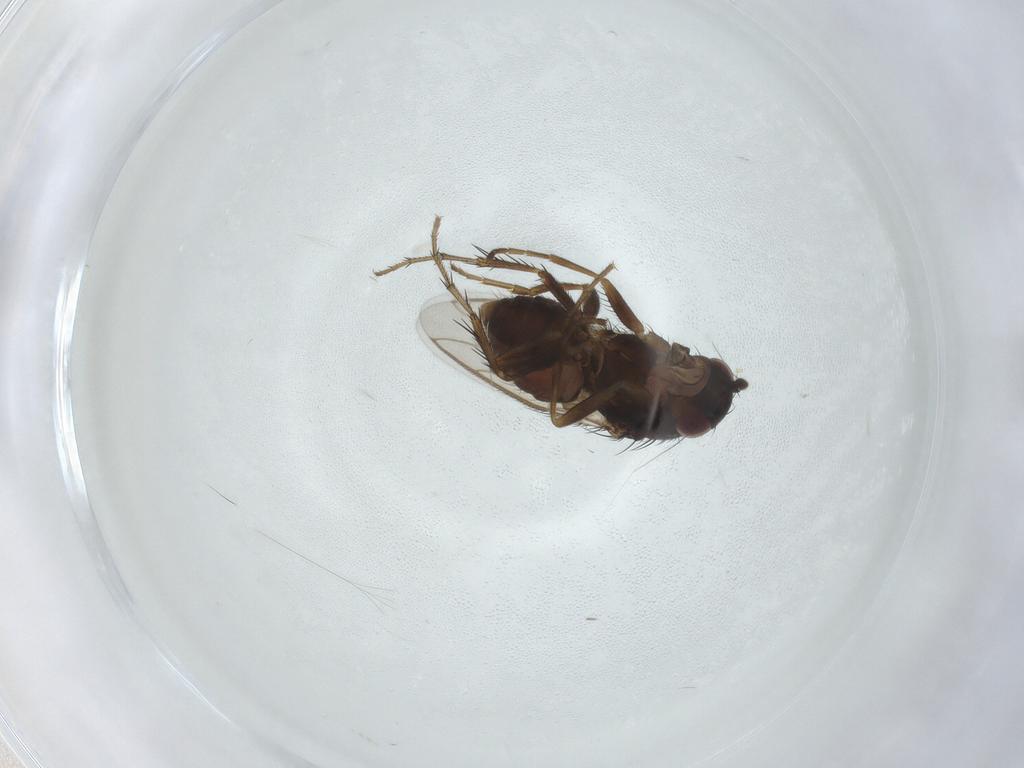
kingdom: Animalia
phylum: Arthropoda
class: Insecta
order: Diptera
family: Sphaeroceridae
